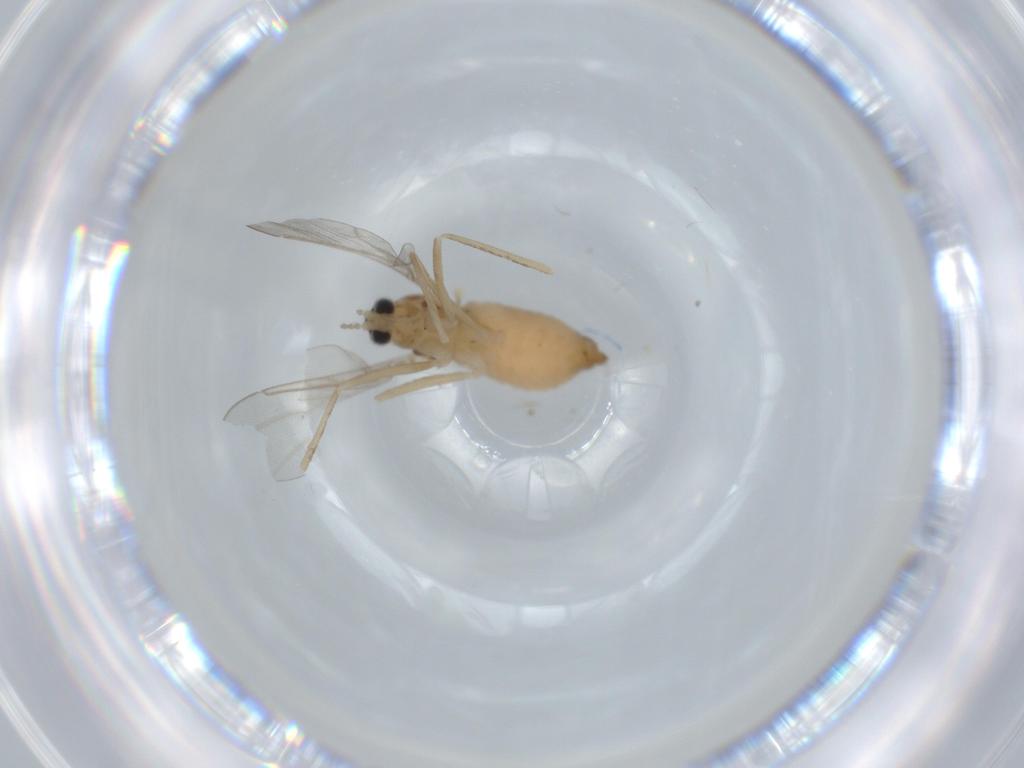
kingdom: Animalia
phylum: Arthropoda
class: Insecta
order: Diptera
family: Cecidomyiidae
